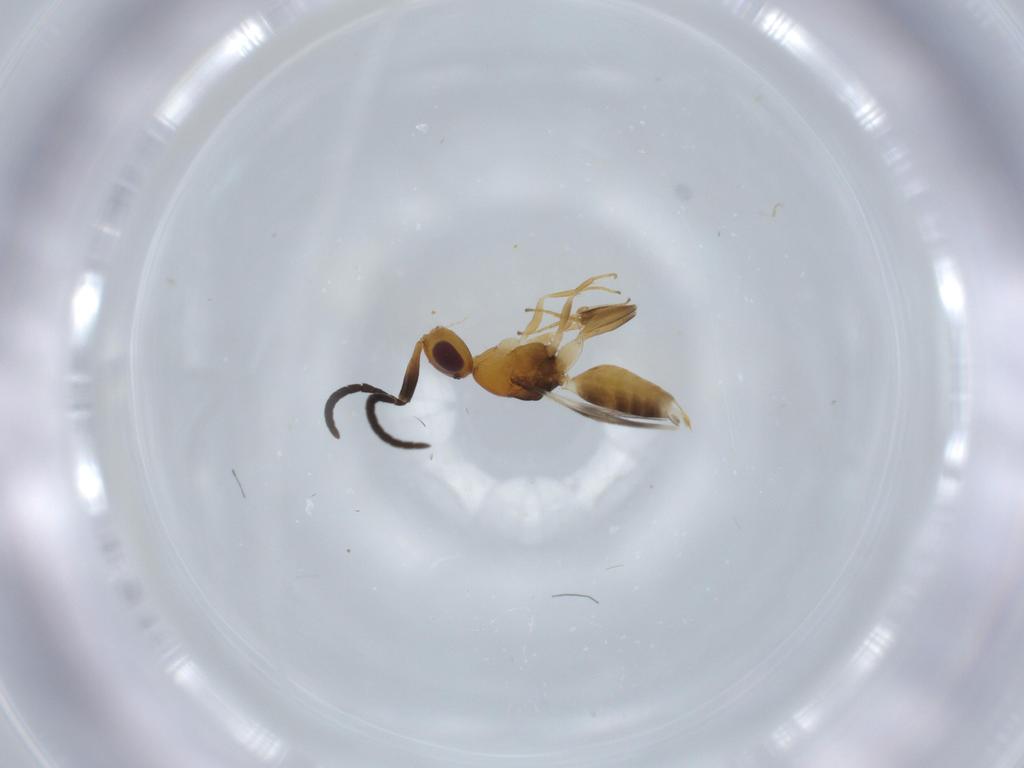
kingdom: Animalia
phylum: Arthropoda
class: Insecta
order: Hymenoptera
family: Megaspilidae
